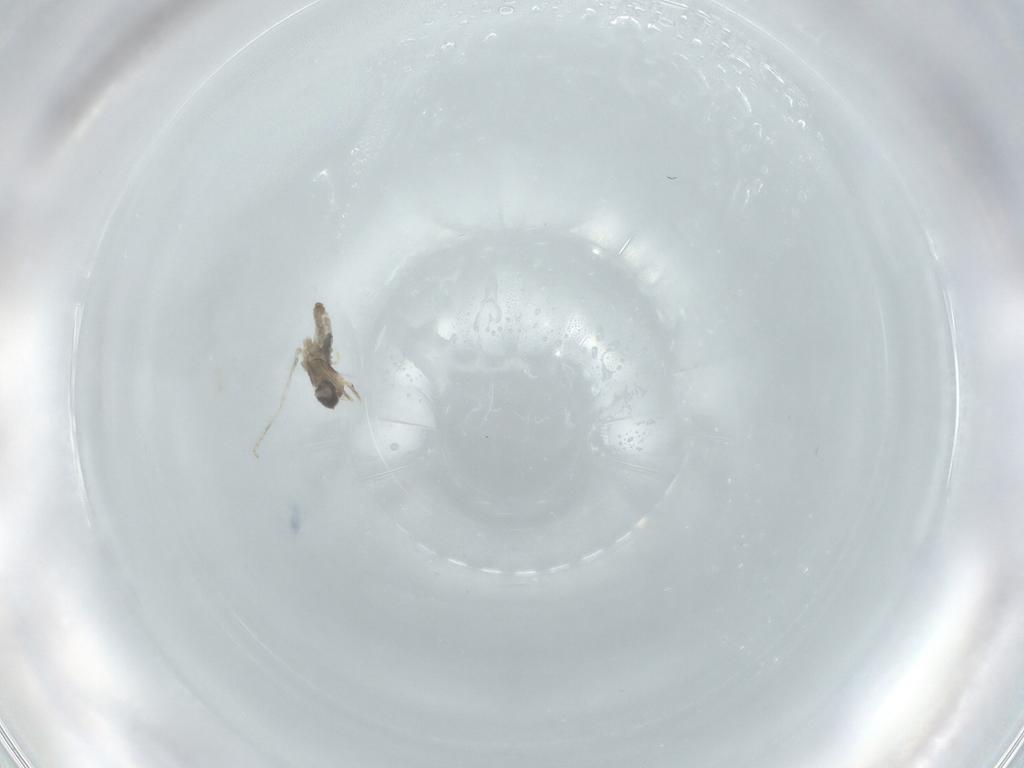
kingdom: Animalia
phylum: Arthropoda
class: Insecta
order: Diptera
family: Cecidomyiidae
